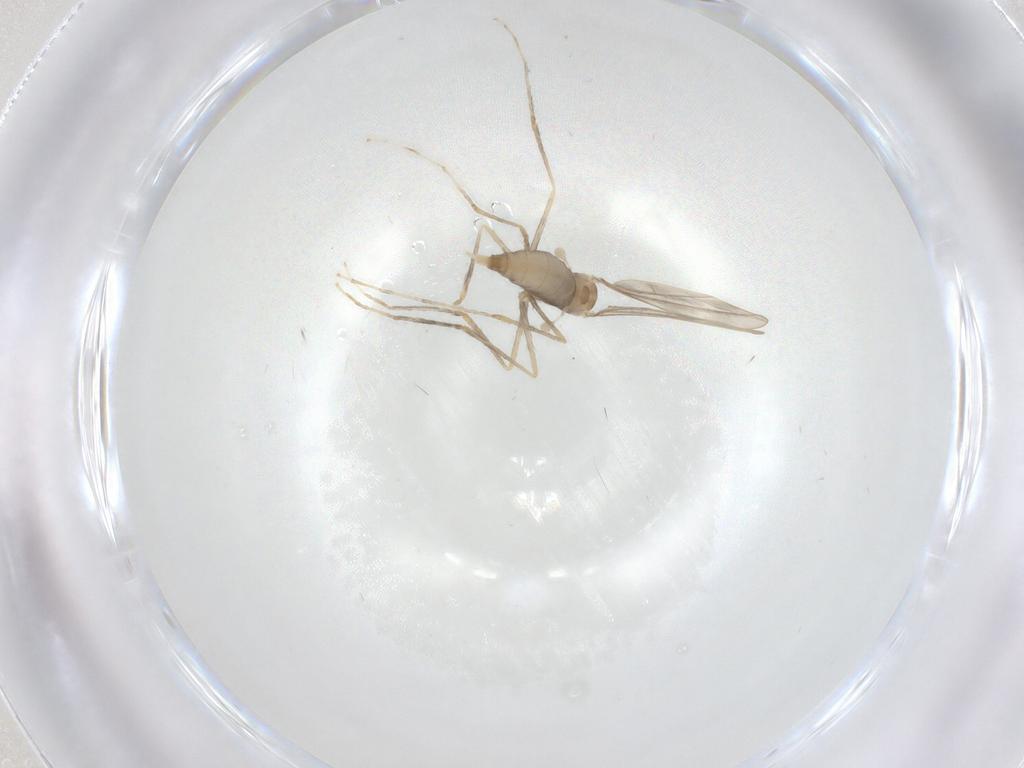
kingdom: Animalia
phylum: Arthropoda
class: Insecta
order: Diptera
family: Cecidomyiidae
